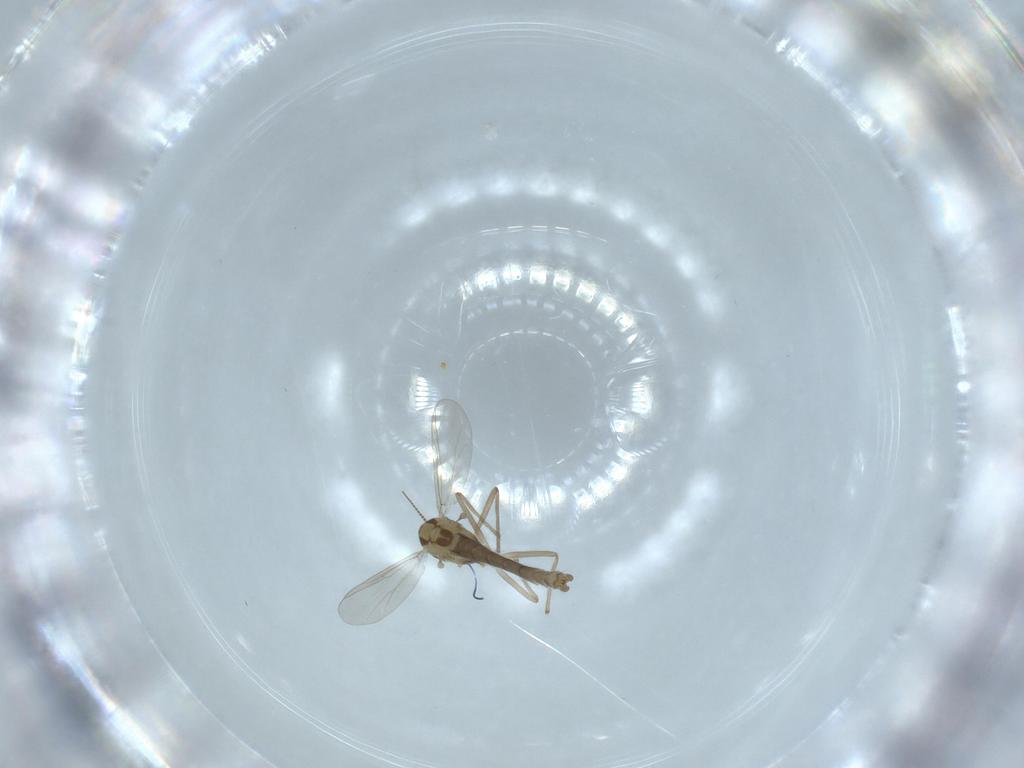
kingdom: Animalia
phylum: Arthropoda
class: Insecta
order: Diptera
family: Chironomidae
